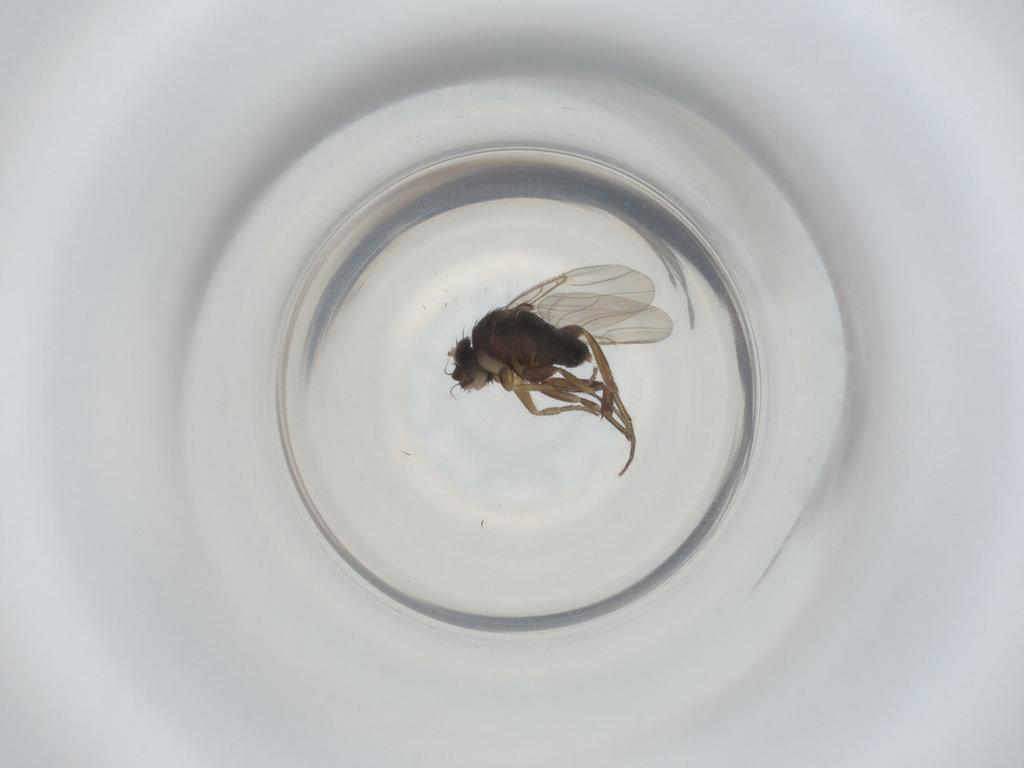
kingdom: Animalia
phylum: Arthropoda
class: Insecta
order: Diptera
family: Phoridae
